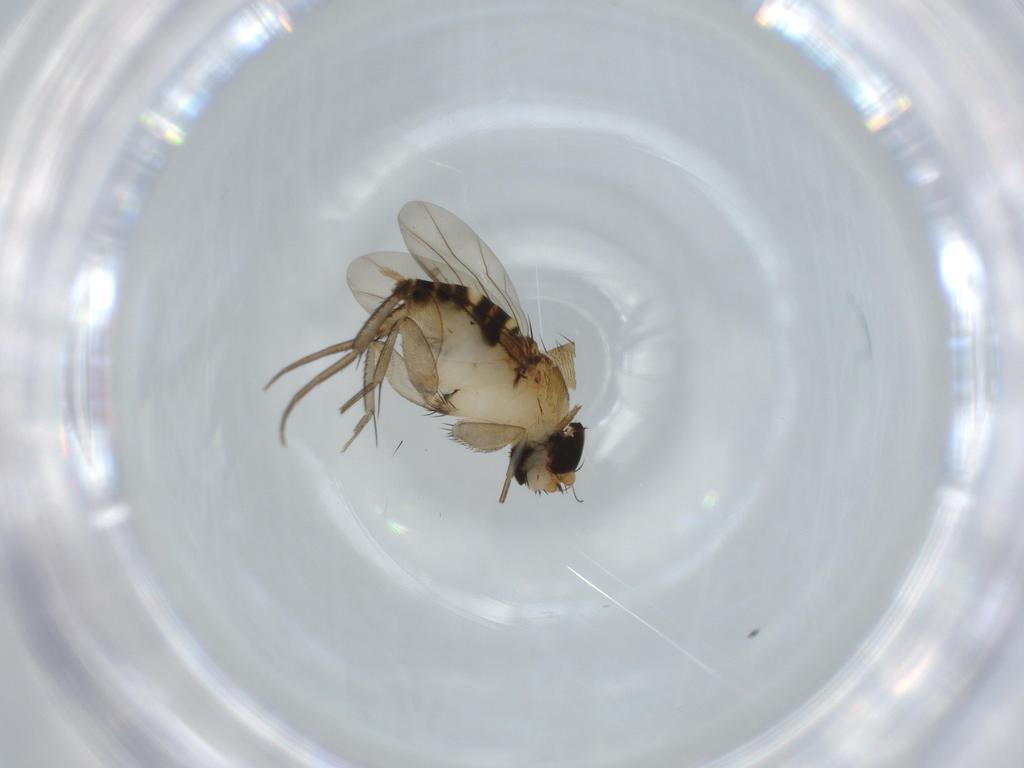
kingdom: Animalia
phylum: Arthropoda
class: Insecta
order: Diptera
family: Phoridae
